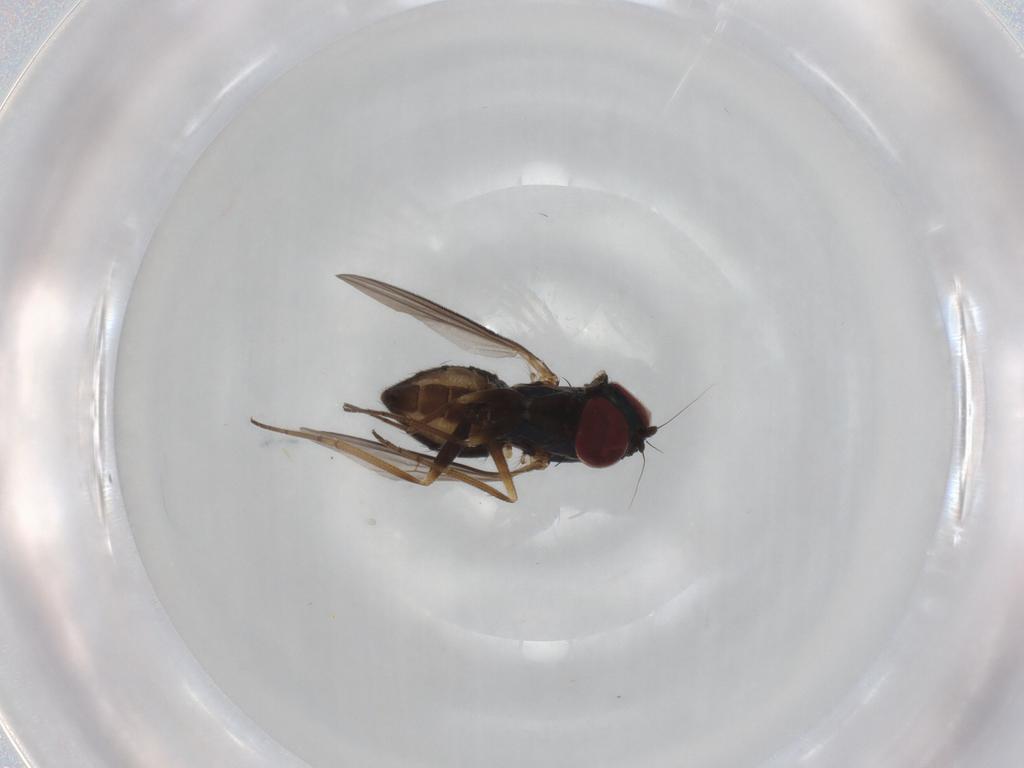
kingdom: Animalia
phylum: Arthropoda
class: Insecta
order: Diptera
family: Dolichopodidae
